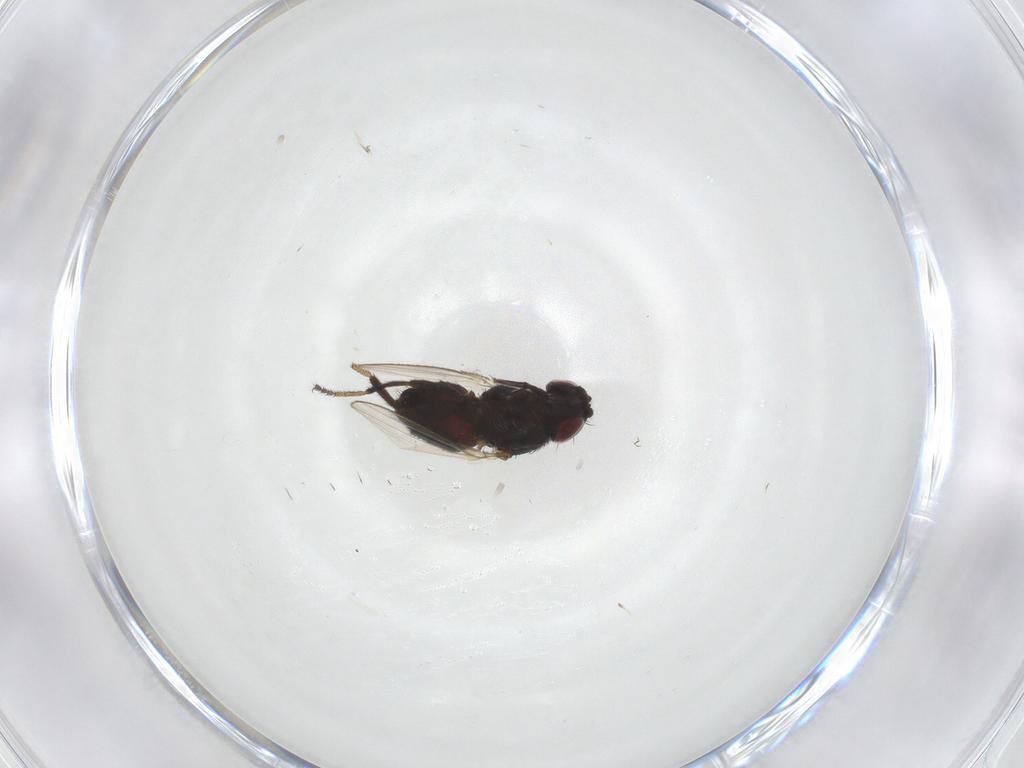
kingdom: Animalia
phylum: Arthropoda
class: Insecta
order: Diptera
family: Milichiidae
